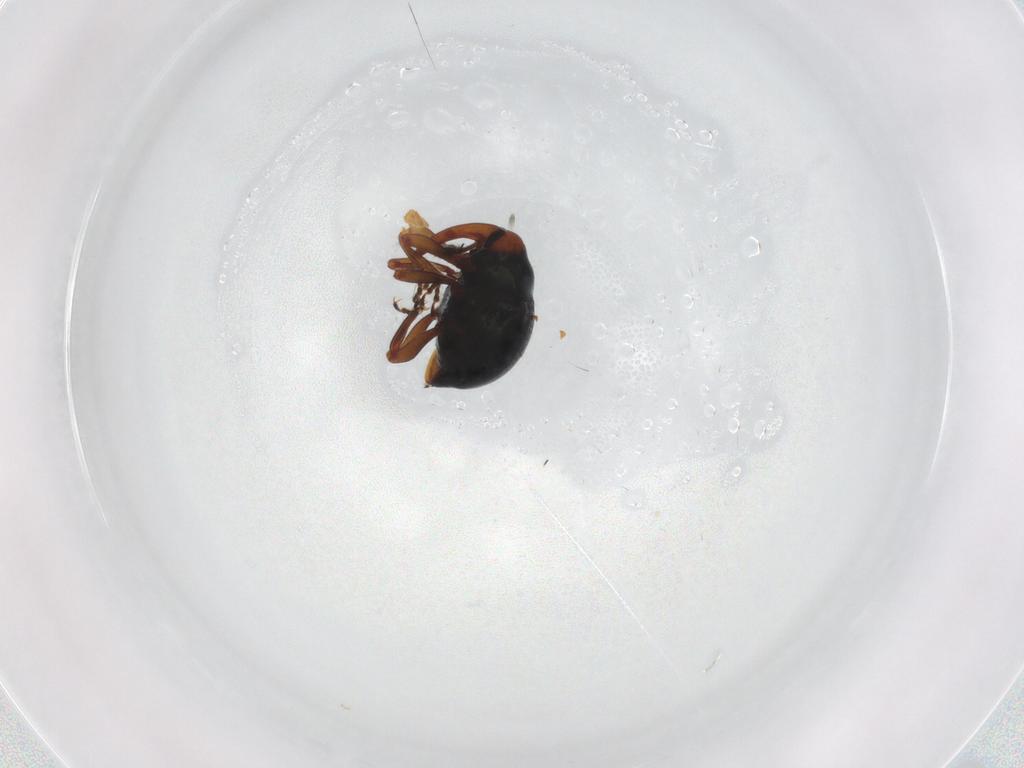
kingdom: Animalia
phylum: Arthropoda
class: Insecta
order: Coleoptera
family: Curculionidae
